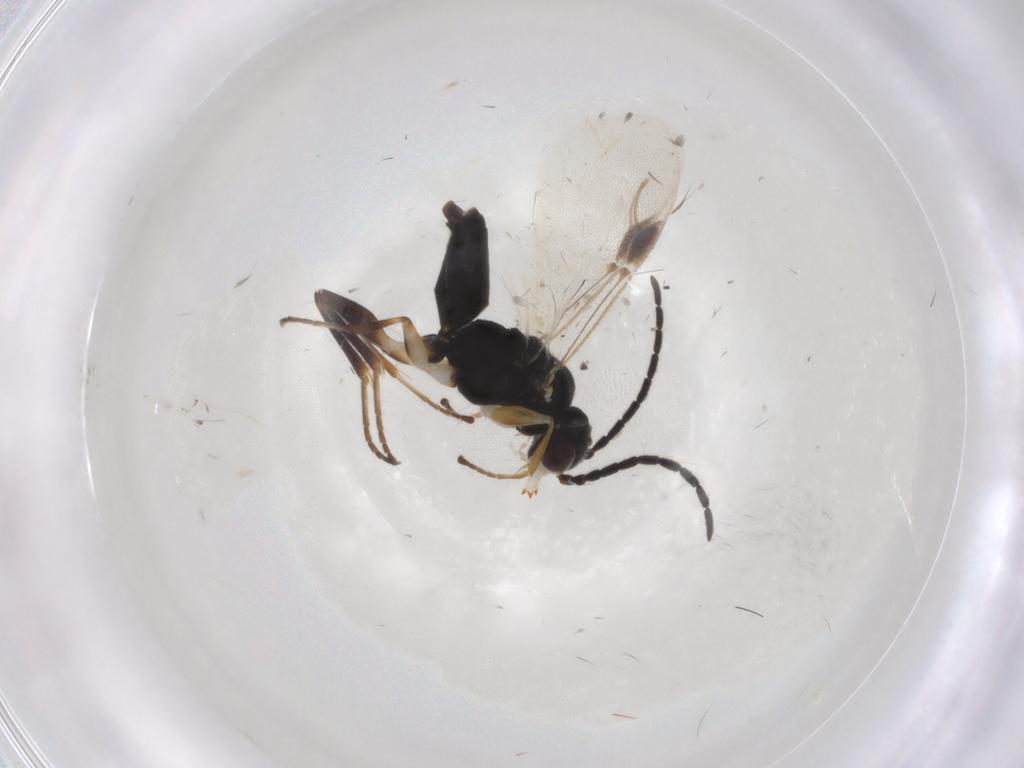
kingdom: Animalia
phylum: Arthropoda
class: Insecta
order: Hymenoptera
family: Dryinidae
